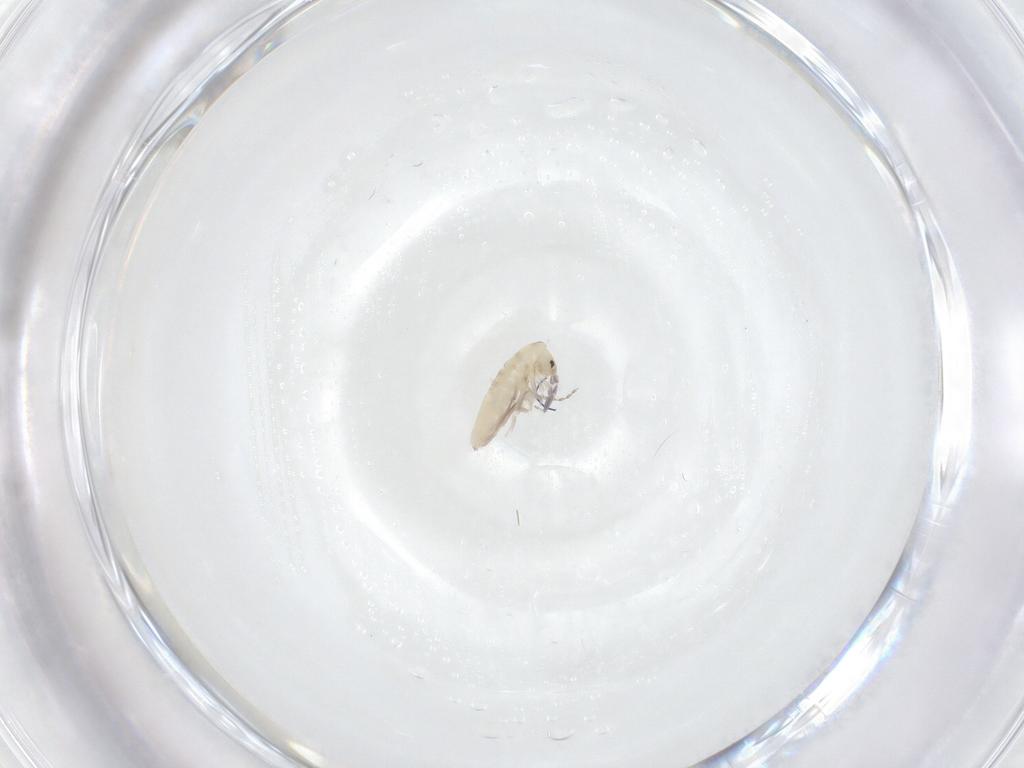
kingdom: Animalia
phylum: Arthropoda
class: Collembola
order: Entomobryomorpha
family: Entomobryidae
